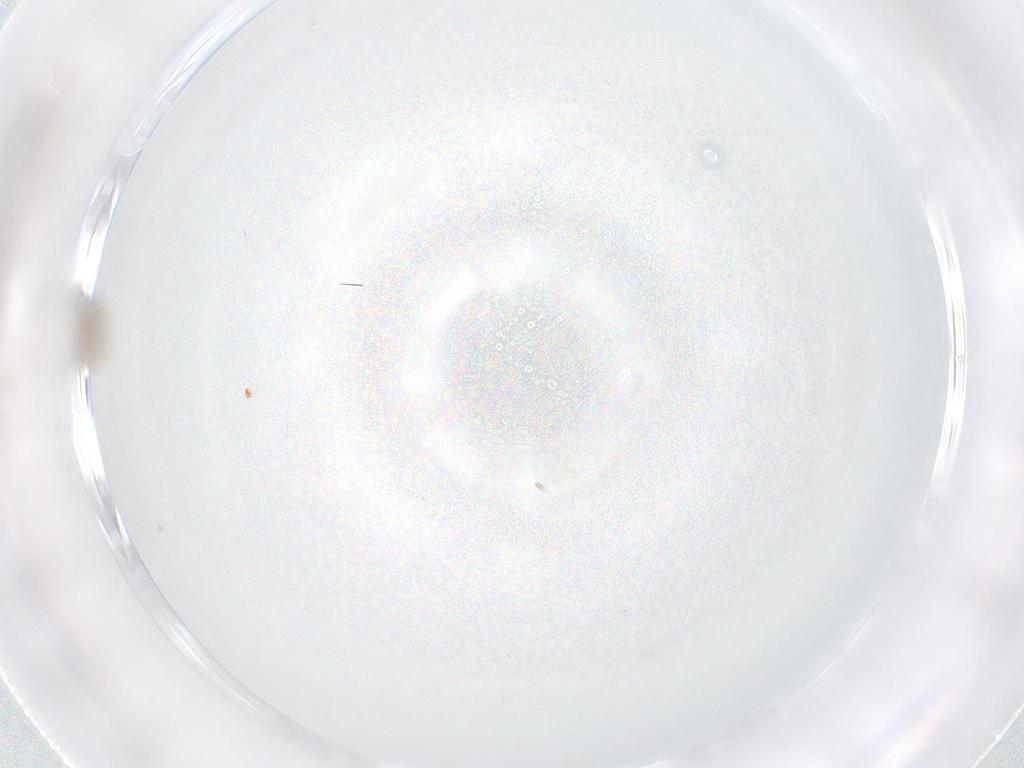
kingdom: Animalia
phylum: Arthropoda
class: Insecta
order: Diptera
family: Cecidomyiidae
